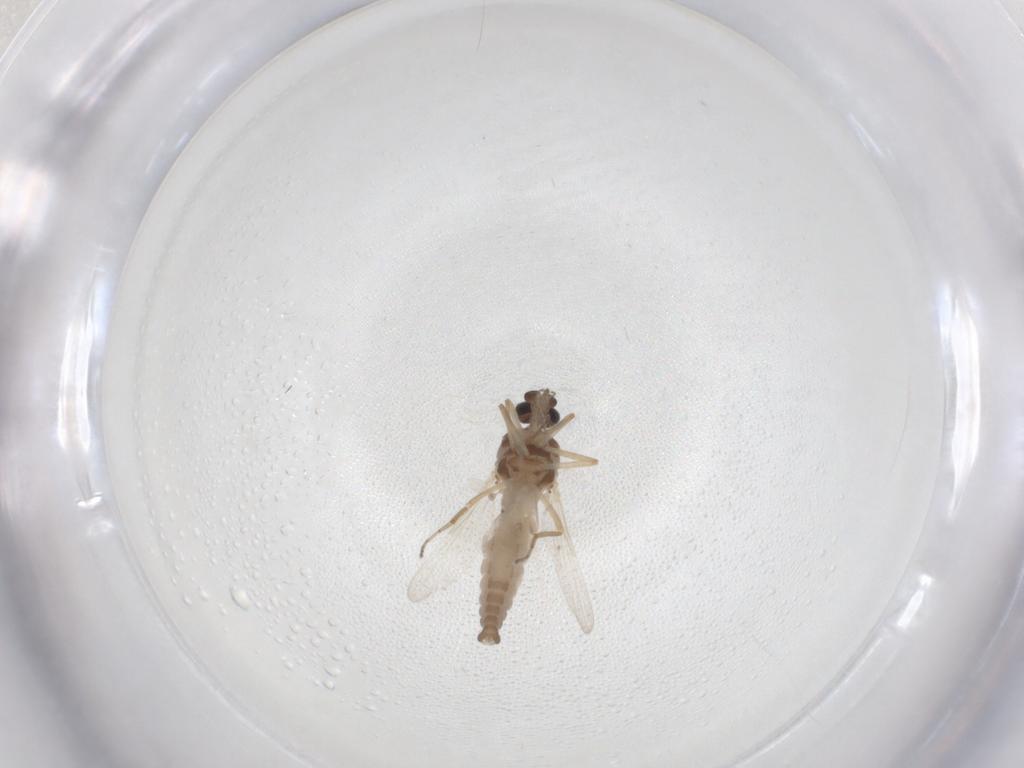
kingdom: Animalia
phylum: Arthropoda
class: Insecta
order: Diptera
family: Ceratopogonidae
